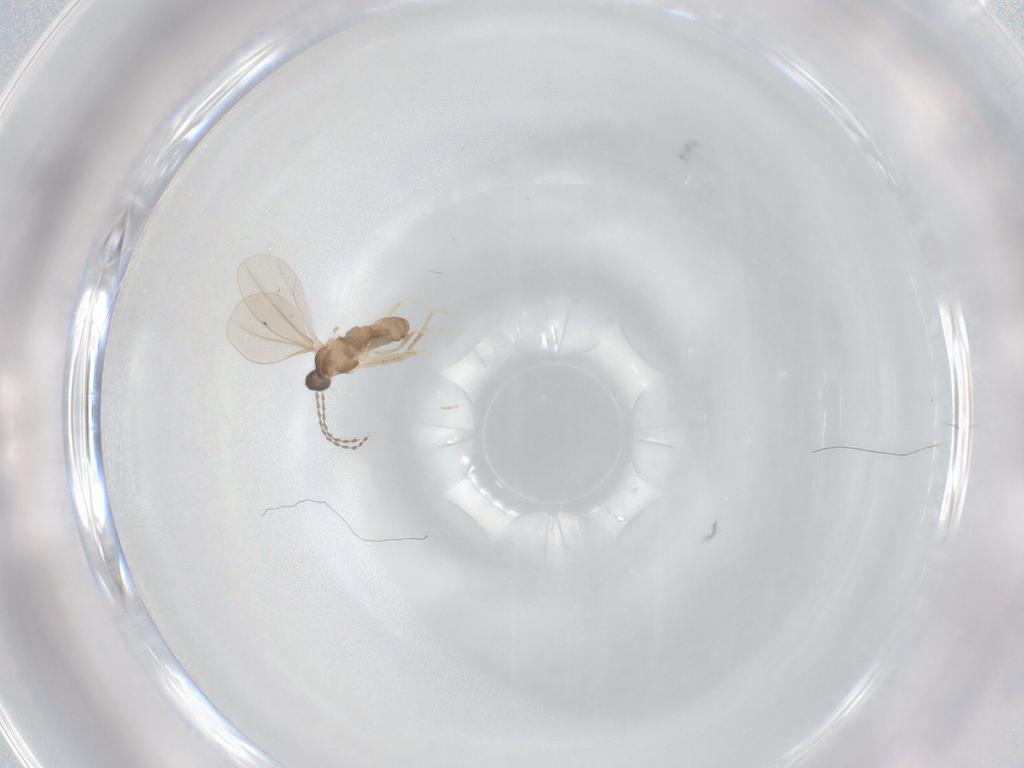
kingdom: Animalia
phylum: Arthropoda
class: Insecta
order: Diptera
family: Cecidomyiidae
